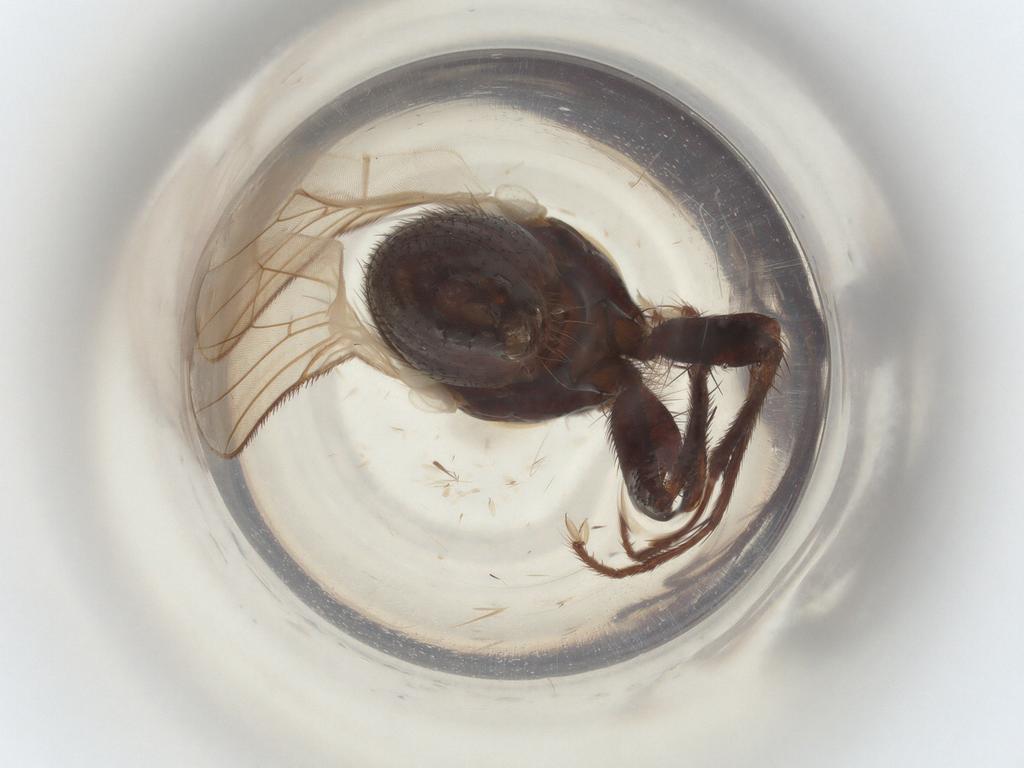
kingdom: Animalia
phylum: Arthropoda
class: Insecta
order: Diptera
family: Muscidae
